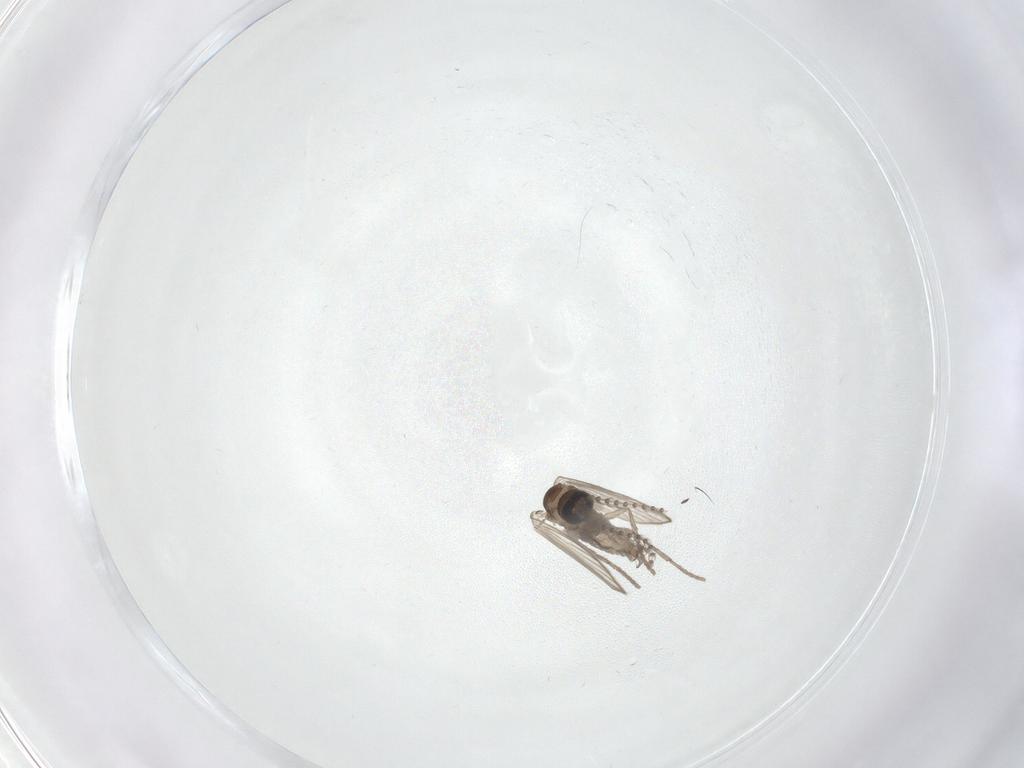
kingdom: Animalia
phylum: Arthropoda
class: Insecta
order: Diptera
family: Psychodidae
